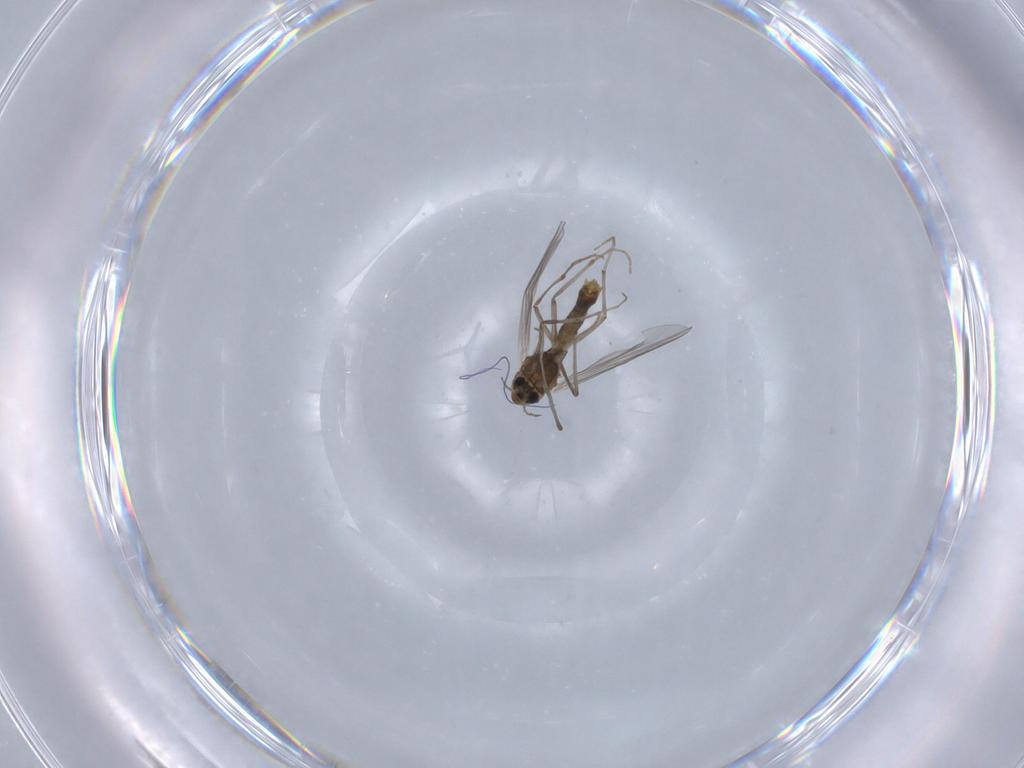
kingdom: Animalia
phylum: Arthropoda
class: Insecta
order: Diptera
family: Chironomidae
